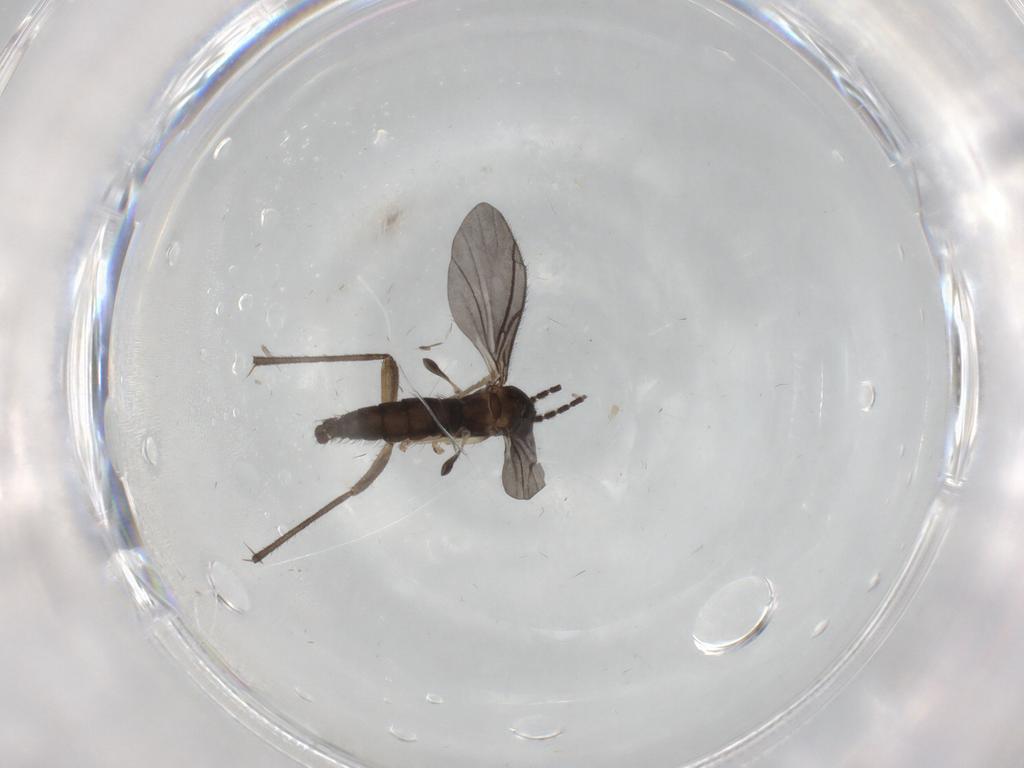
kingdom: Animalia
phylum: Arthropoda
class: Insecta
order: Diptera
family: Sciaridae
